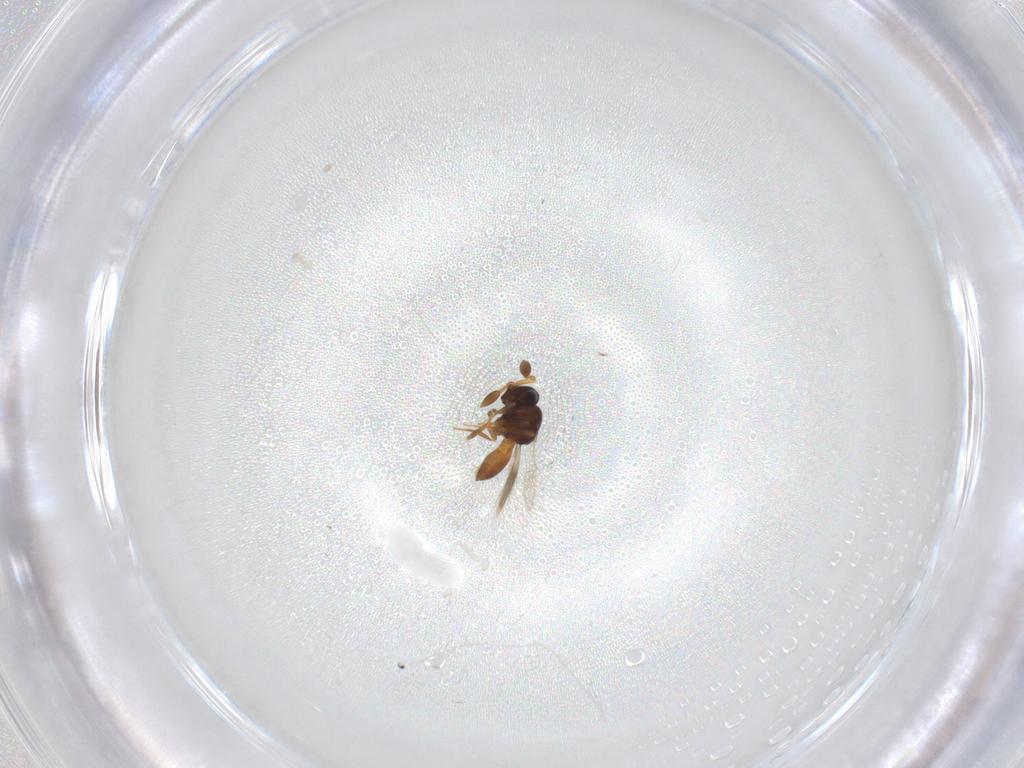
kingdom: Animalia
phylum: Arthropoda
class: Insecta
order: Hymenoptera
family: Scelionidae
